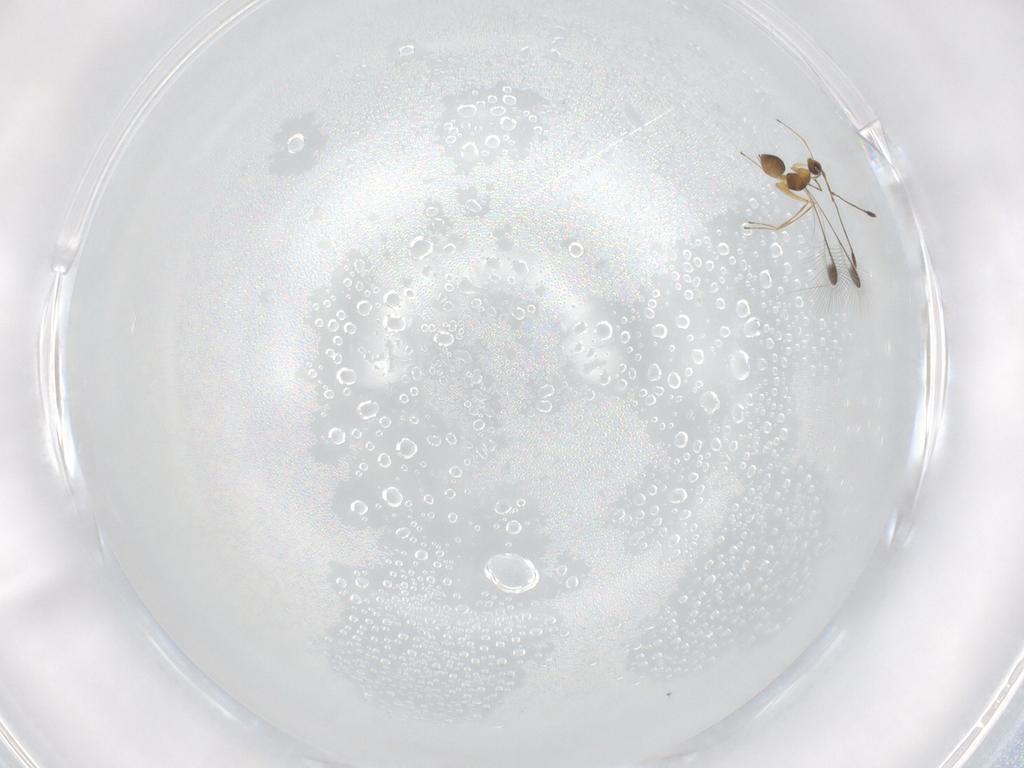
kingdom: Animalia
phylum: Arthropoda
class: Insecta
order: Hymenoptera
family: Mymaridae
